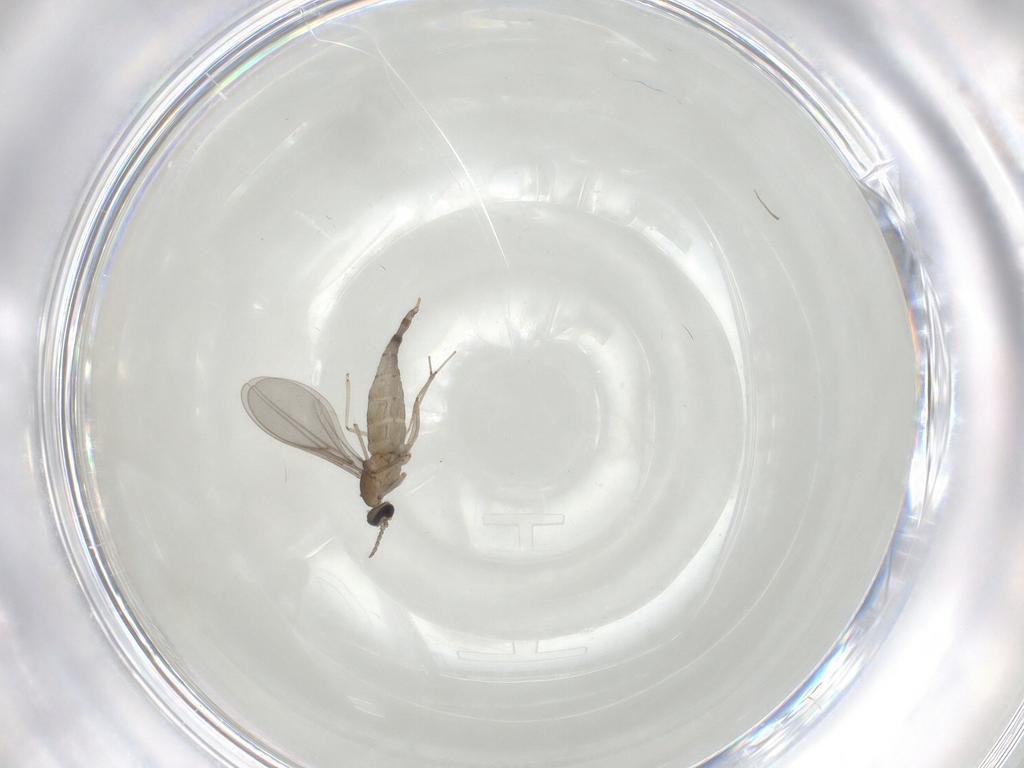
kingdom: Animalia
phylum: Arthropoda
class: Insecta
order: Diptera
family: Cecidomyiidae
